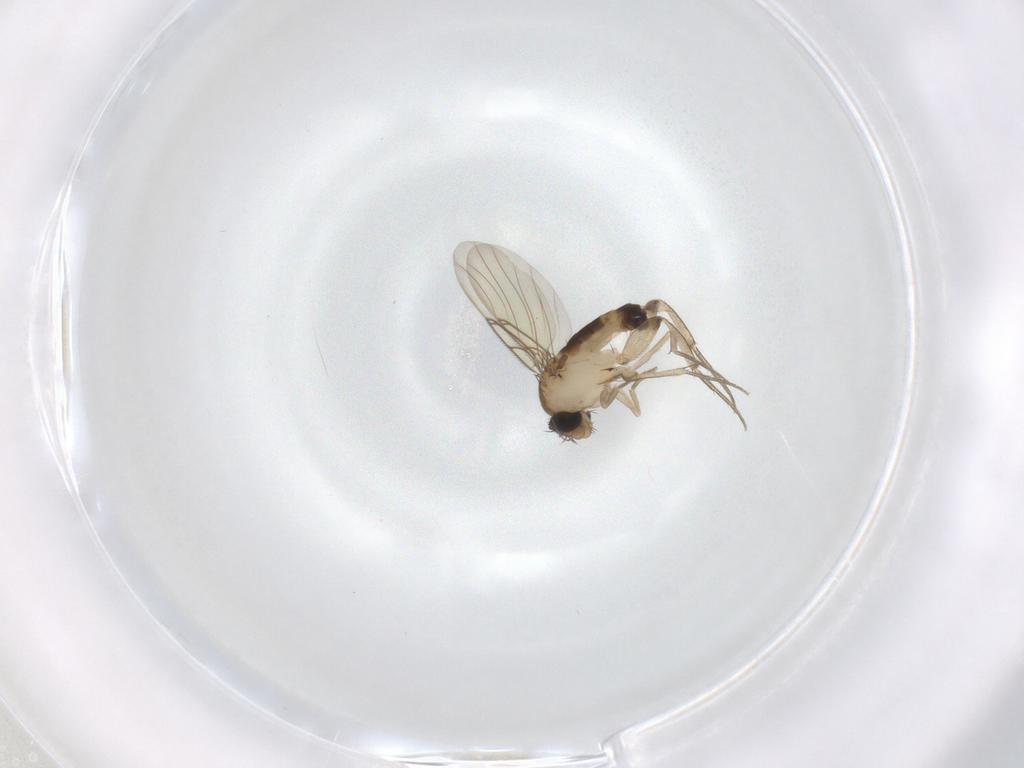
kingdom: Animalia
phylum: Arthropoda
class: Insecta
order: Diptera
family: Phoridae
